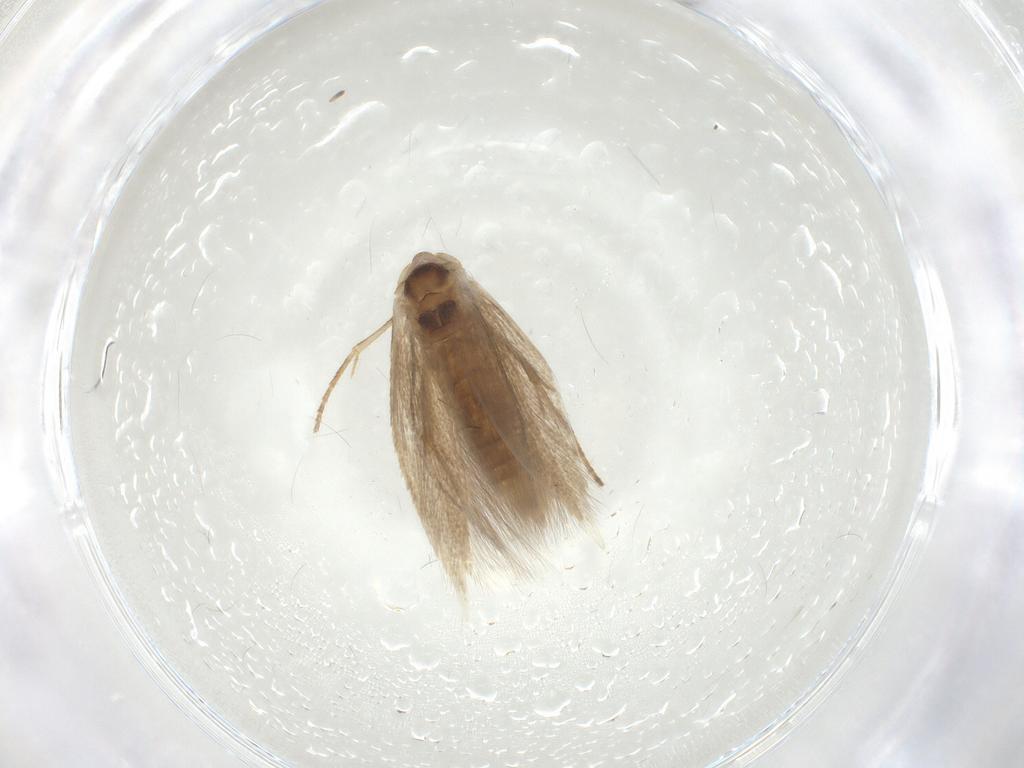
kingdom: Animalia
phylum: Arthropoda
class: Insecta
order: Lepidoptera
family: Bucculatricidae
